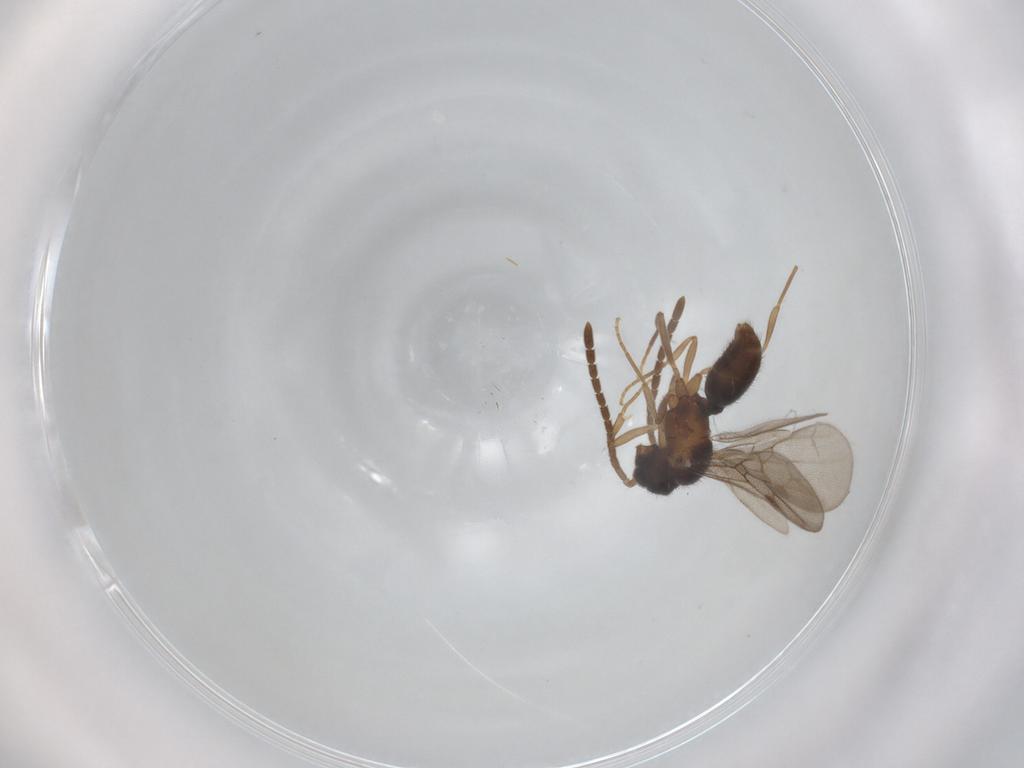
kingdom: Animalia
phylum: Arthropoda
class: Insecta
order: Hymenoptera
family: Formicidae
